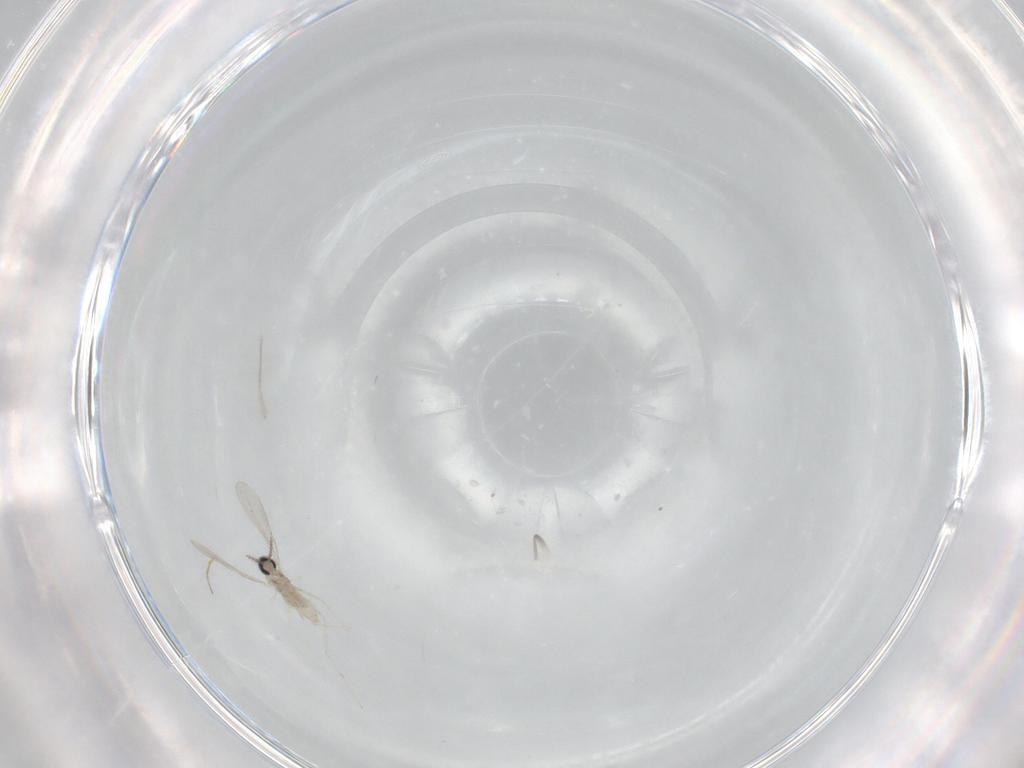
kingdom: Animalia
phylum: Arthropoda
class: Insecta
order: Diptera
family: Cecidomyiidae
